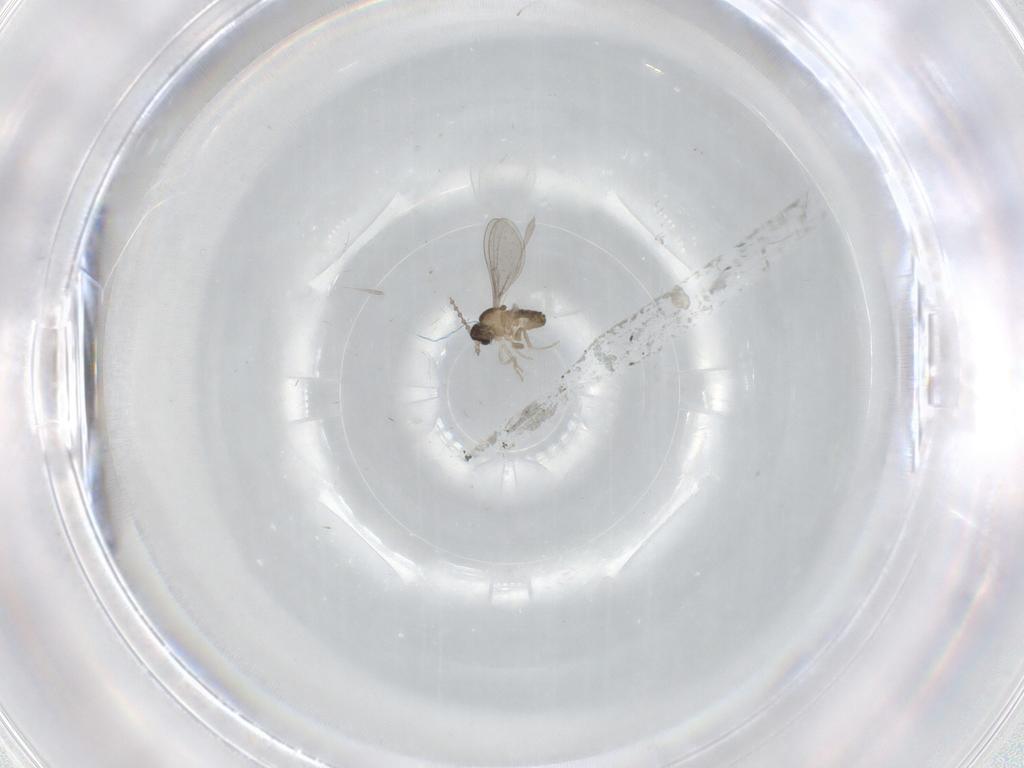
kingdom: Animalia
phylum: Arthropoda
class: Insecta
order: Diptera
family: Cecidomyiidae
